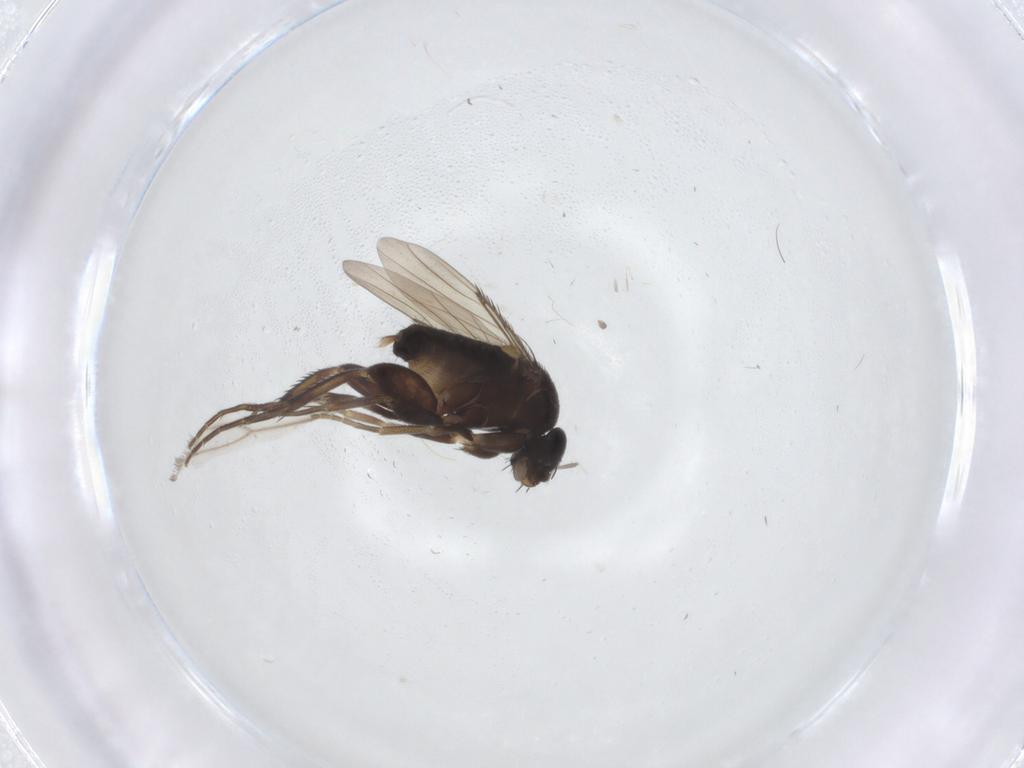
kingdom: Animalia
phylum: Arthropoda
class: Insecta
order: Diptera
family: Phoridae
